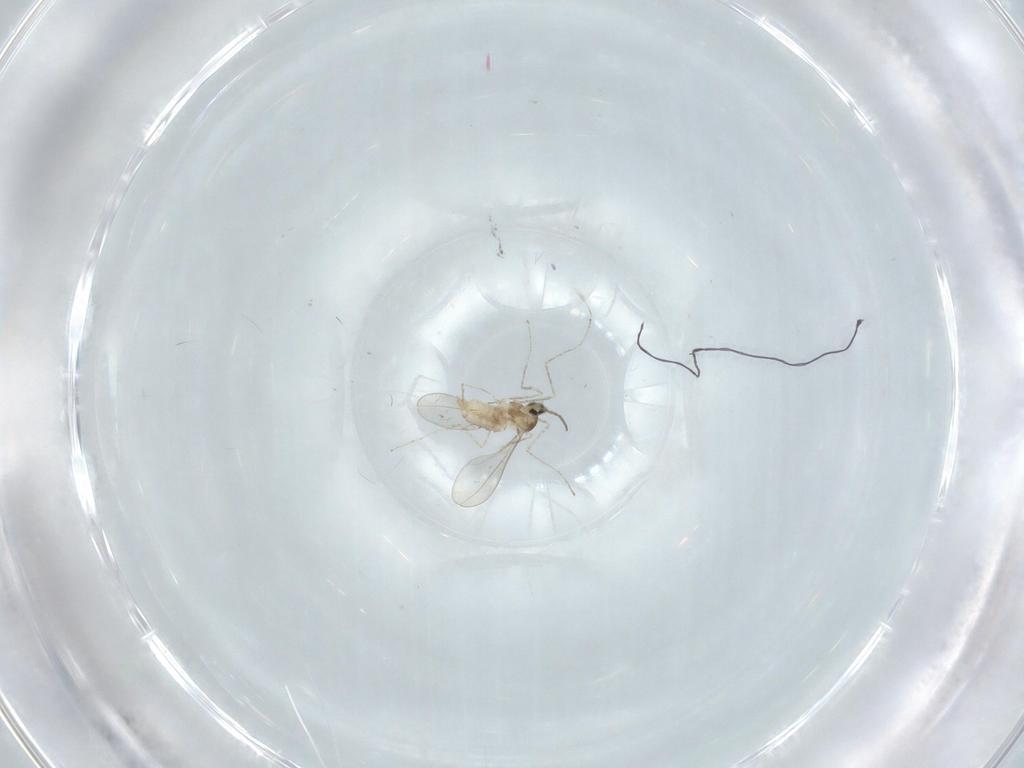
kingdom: Animalia
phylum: Arthropoda
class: Insecta
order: Diptera
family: Cecidomyiidae
